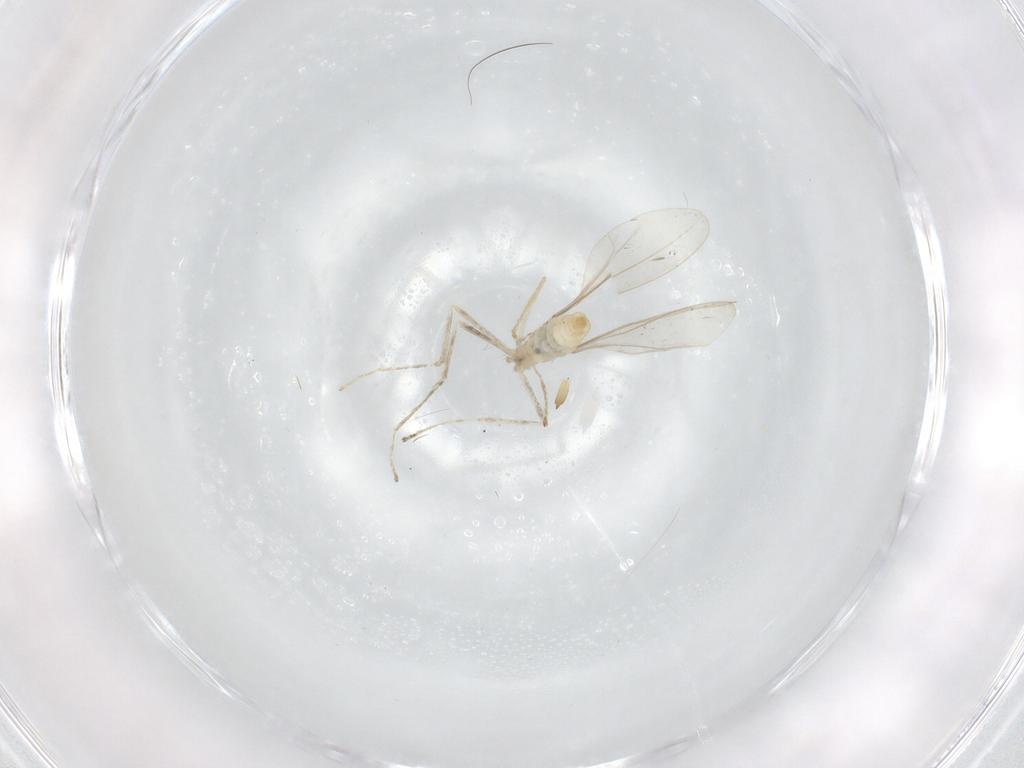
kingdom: Animalia
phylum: Arthropoda
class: Insecta
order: Diptera
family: Cecidomyiidae
